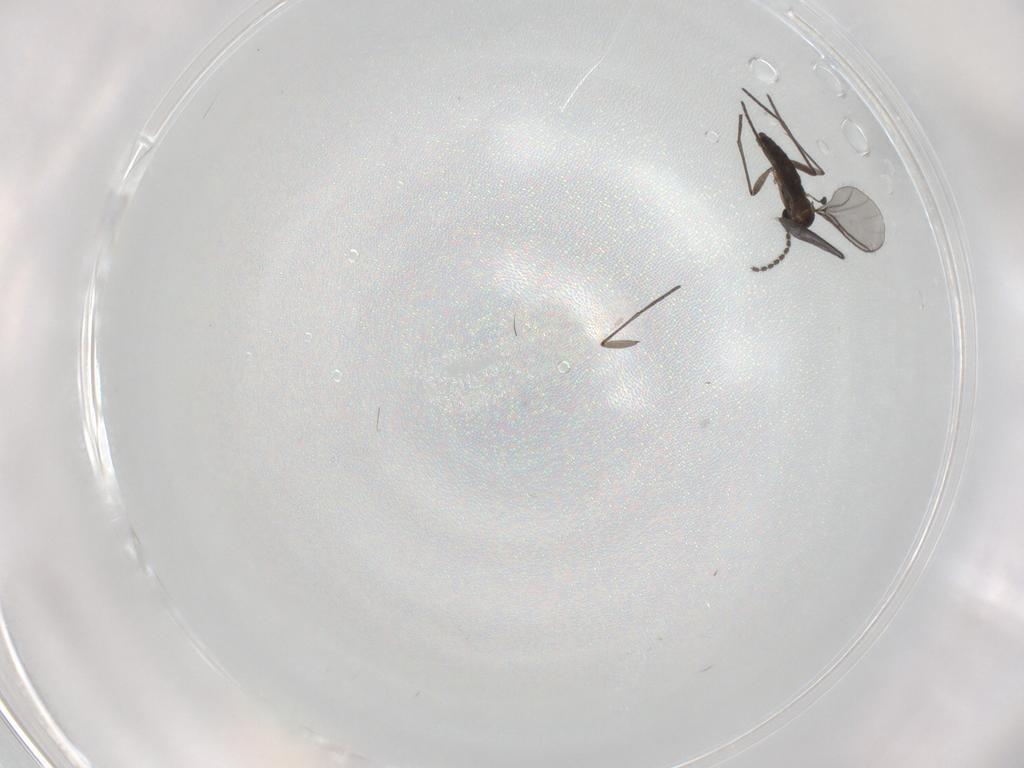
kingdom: Animalia
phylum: Arthropoda
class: Insecta
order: Diptera
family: Sciaridae
